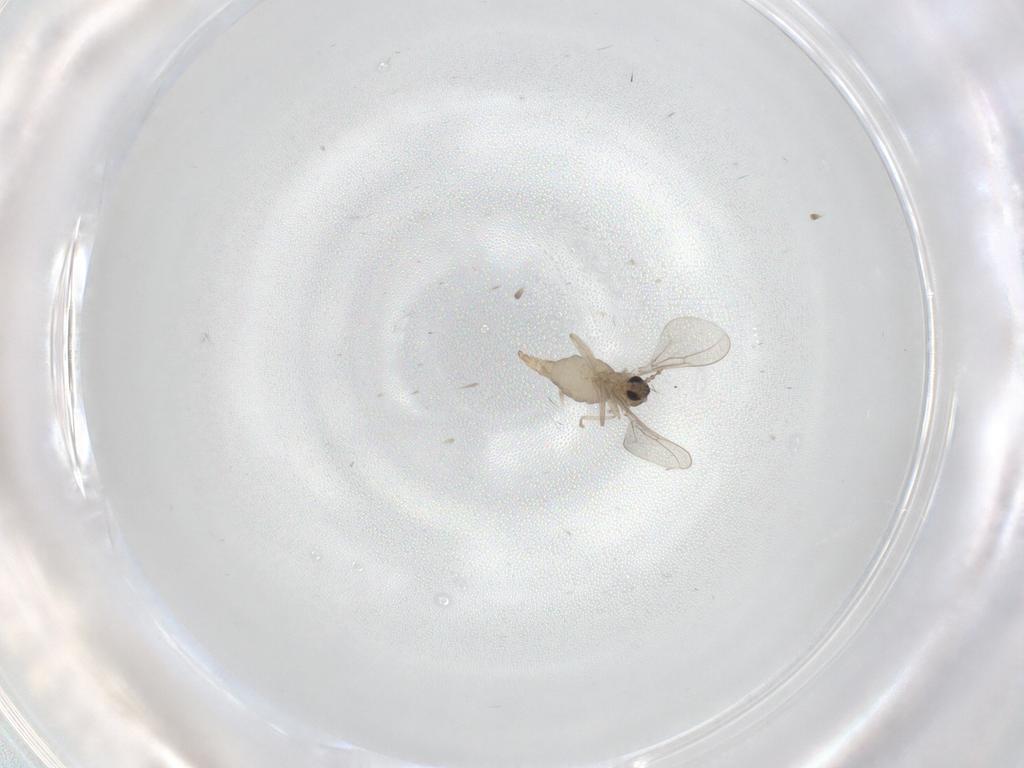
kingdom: Animalia
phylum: Arthropoda
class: Insecta
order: Diptera
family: Cecidomyiidae
